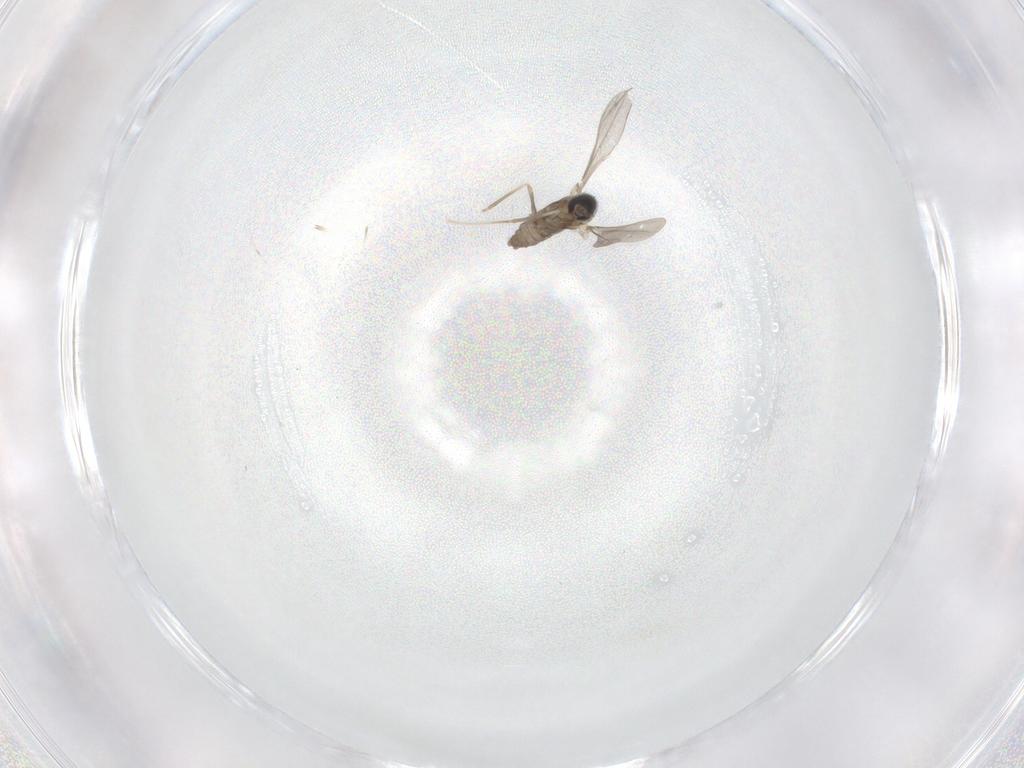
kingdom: Animalia
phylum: Arthropoda
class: Insecta
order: Diptera
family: Cecidomyiidae
